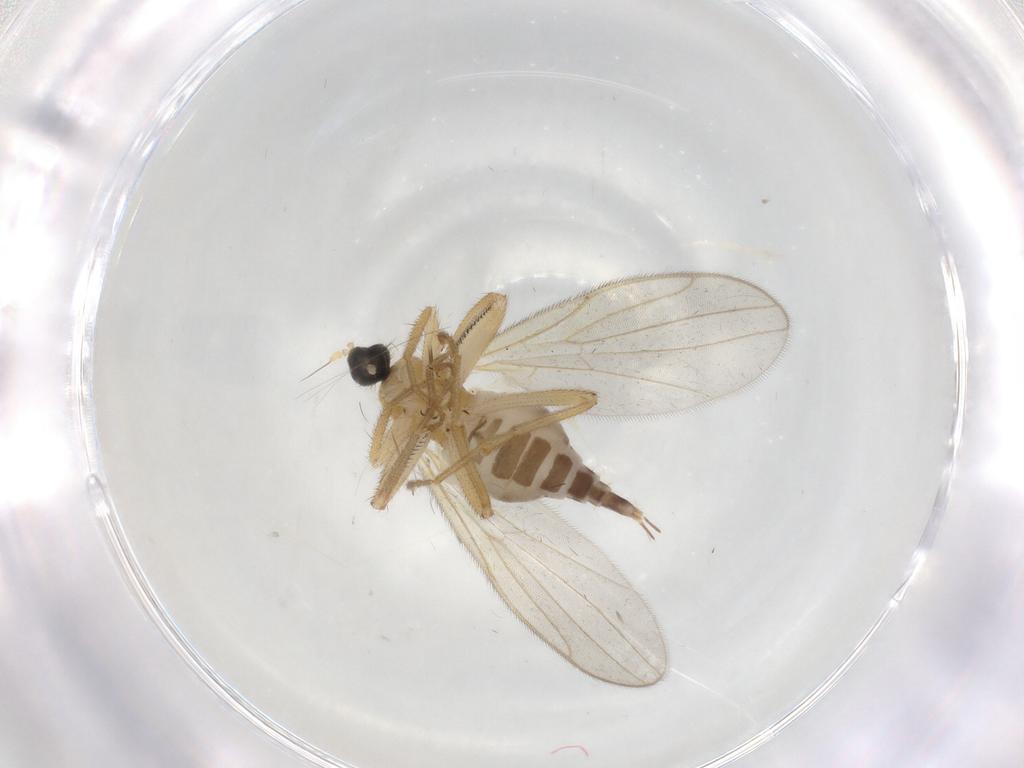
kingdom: Animalia
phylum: Arthropoda
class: Insecta
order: Diptera
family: Hybotidae
